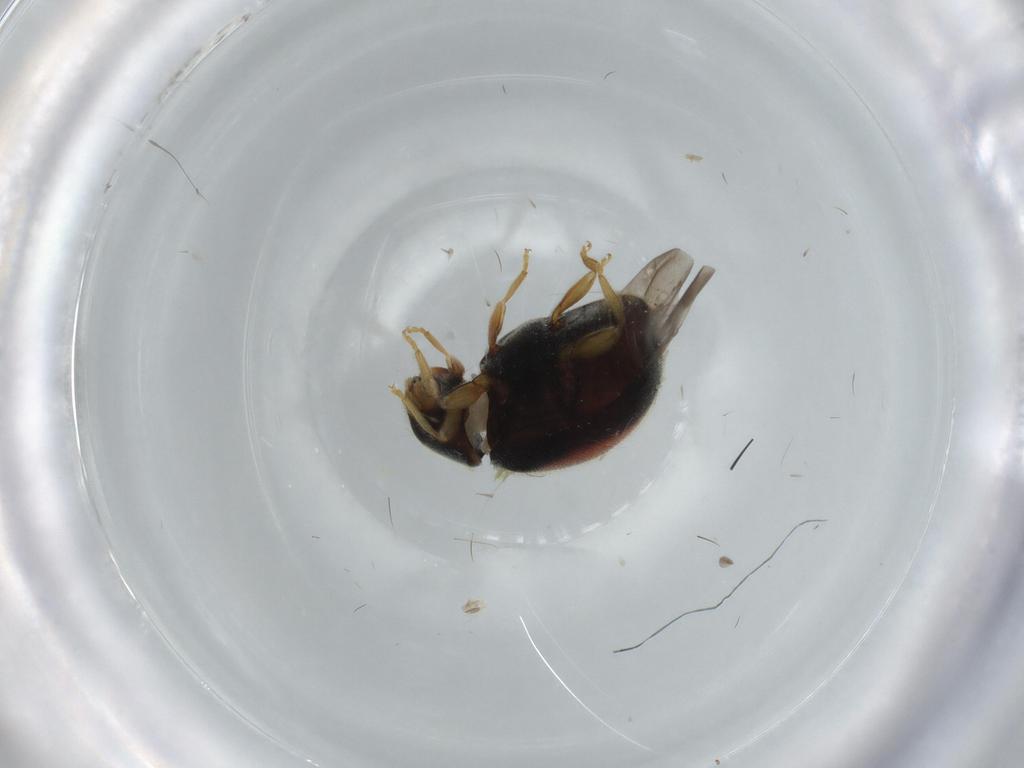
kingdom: Animalia
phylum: Arthropoda
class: Insecta
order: Coleoptera
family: Coccinellidae
